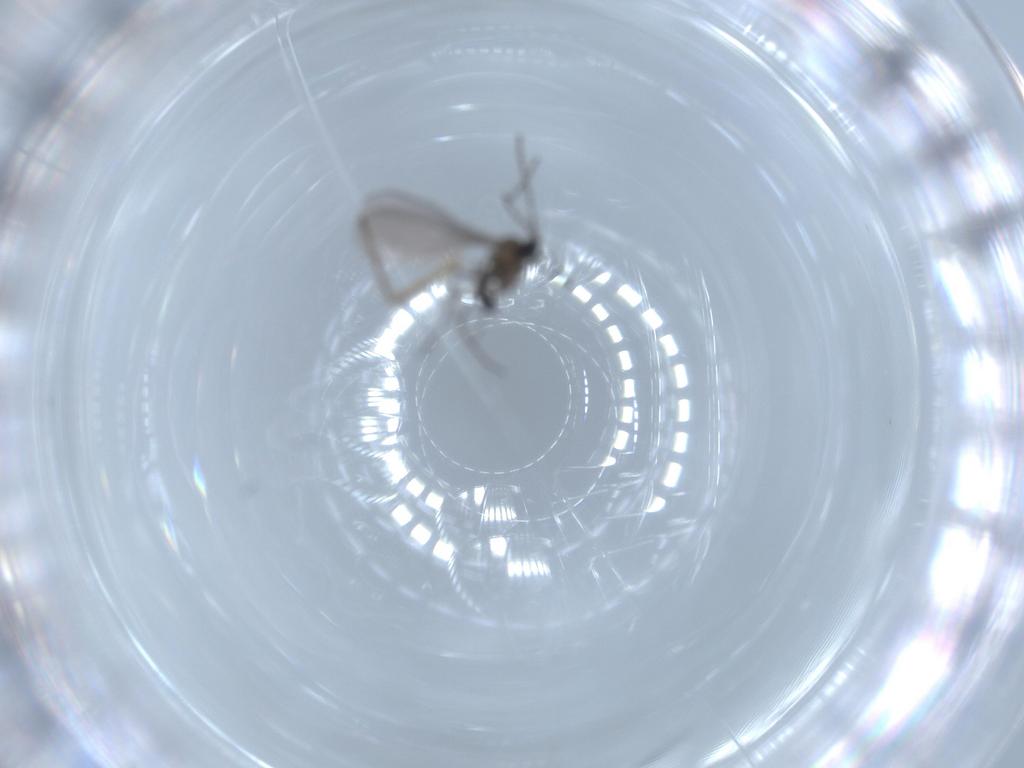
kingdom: Animalia
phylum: Arthropoda
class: Insecta
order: Diptera
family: Sciaridae
